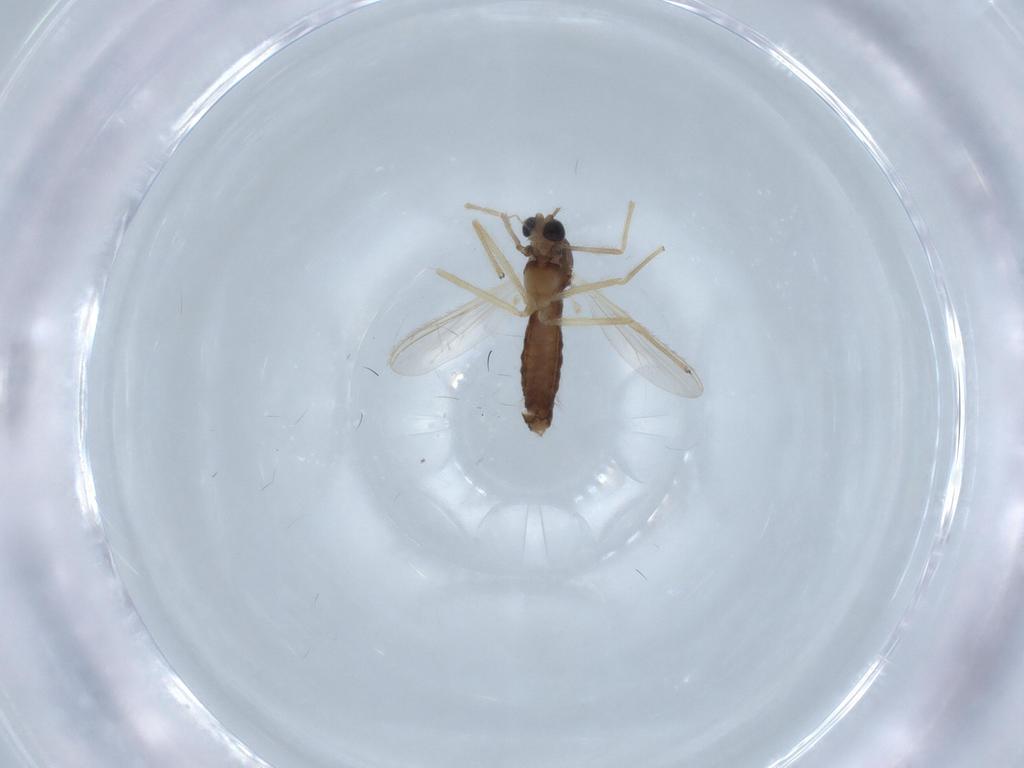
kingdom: Animalia
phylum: Arthropoda
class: Insecta
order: Diptera
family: Chironomidae
